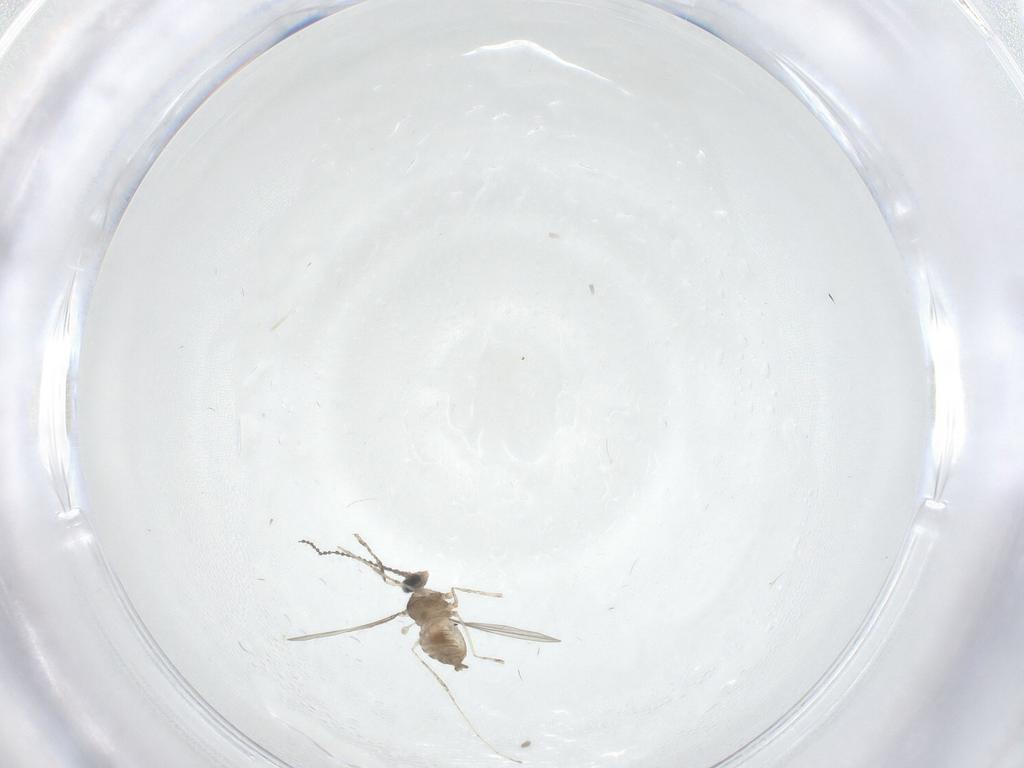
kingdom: Animalia
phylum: Arthropoda
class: Insecta
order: Diptera
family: Cecidomyiidae
